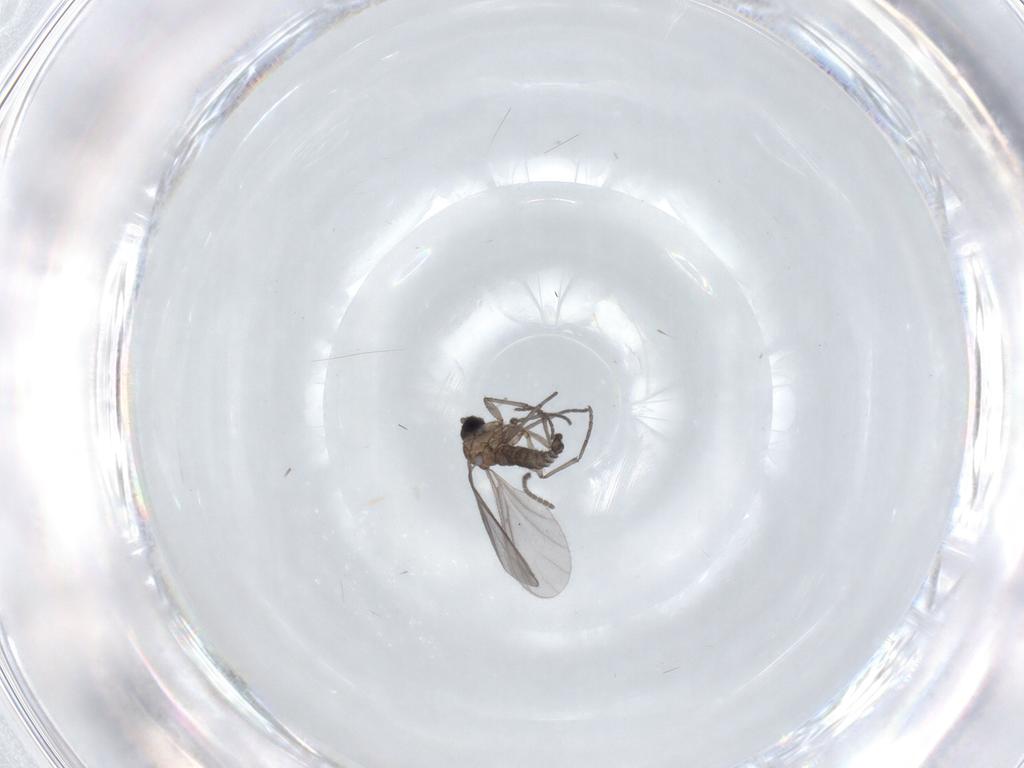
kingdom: Animalia
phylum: Arthropoda
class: Insecta
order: Diptera
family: Sciaridae
